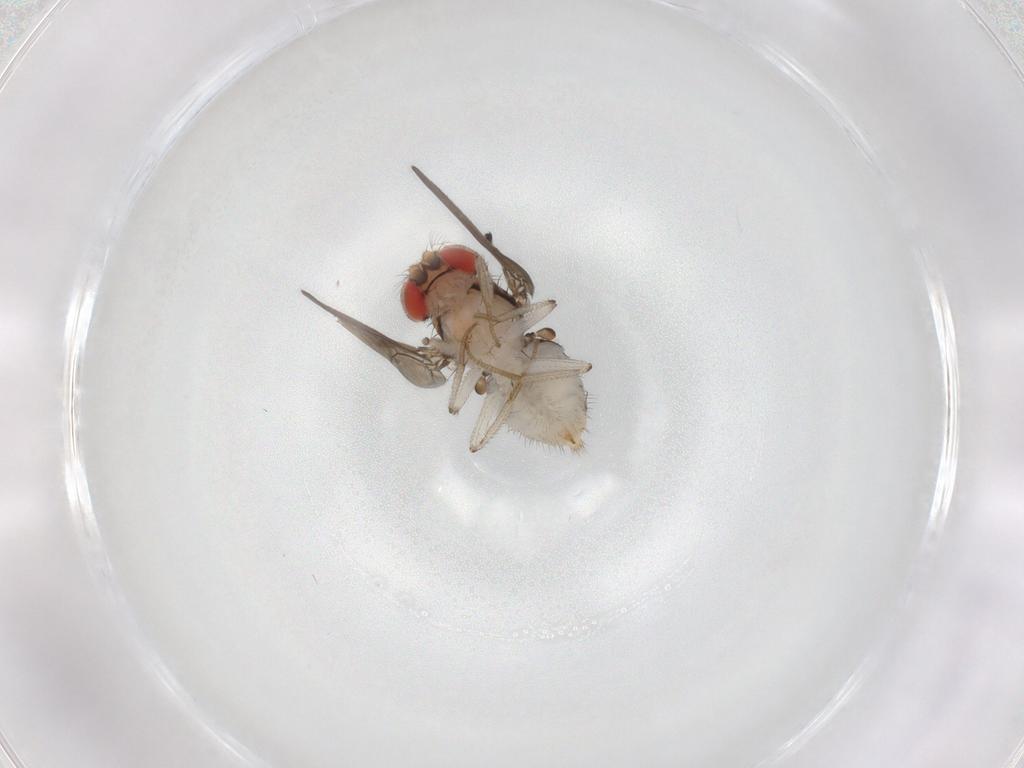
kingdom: Animalia
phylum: Arthropoda
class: Insecta
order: Diptera
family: Drosophilidae
